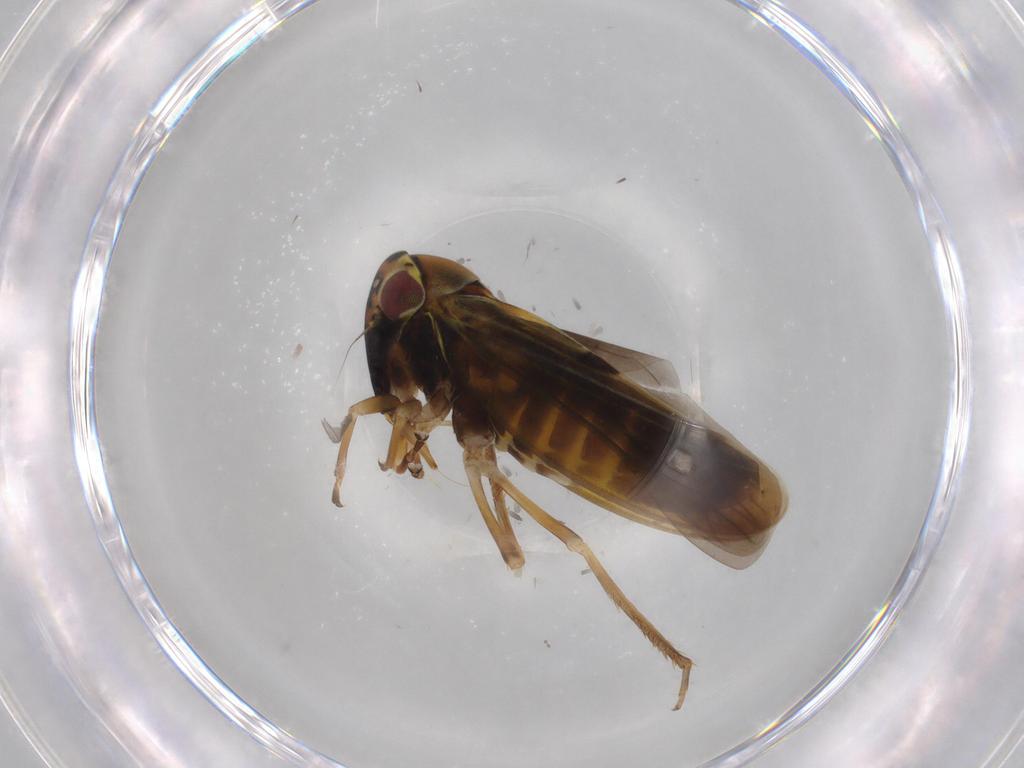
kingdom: Animalia
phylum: Arthropoda
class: Insecta
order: Hemiptera
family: Cicadellidae
